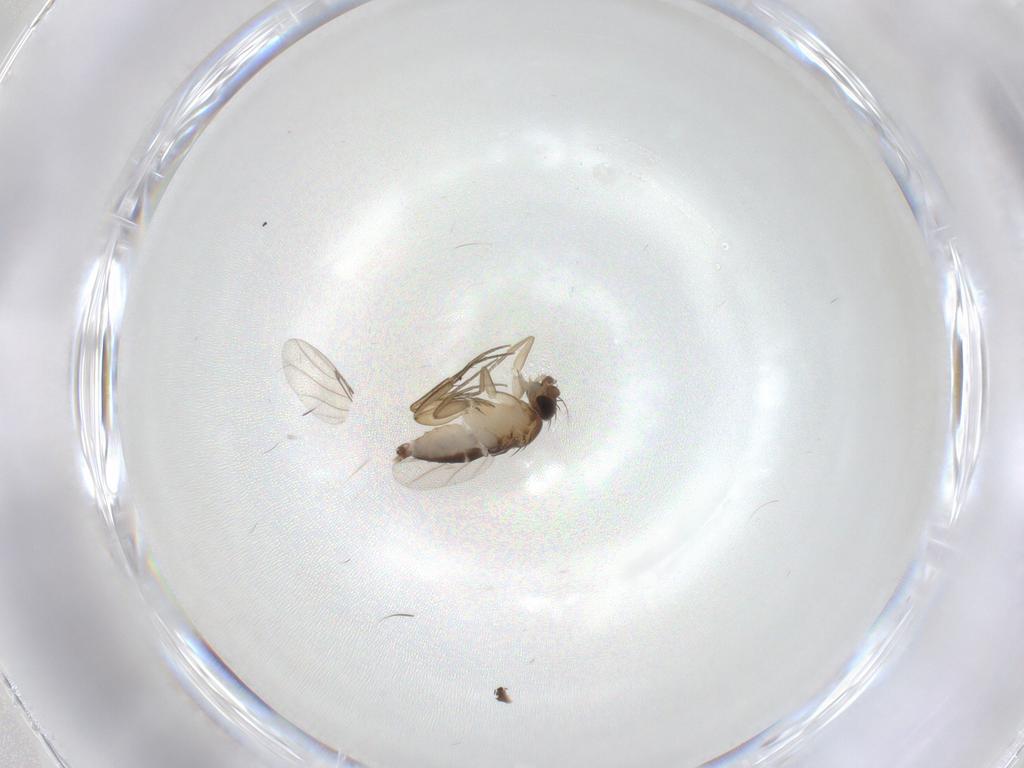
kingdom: Animalia
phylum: Arthropoda
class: Insecta
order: Diptera
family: Phoridae
